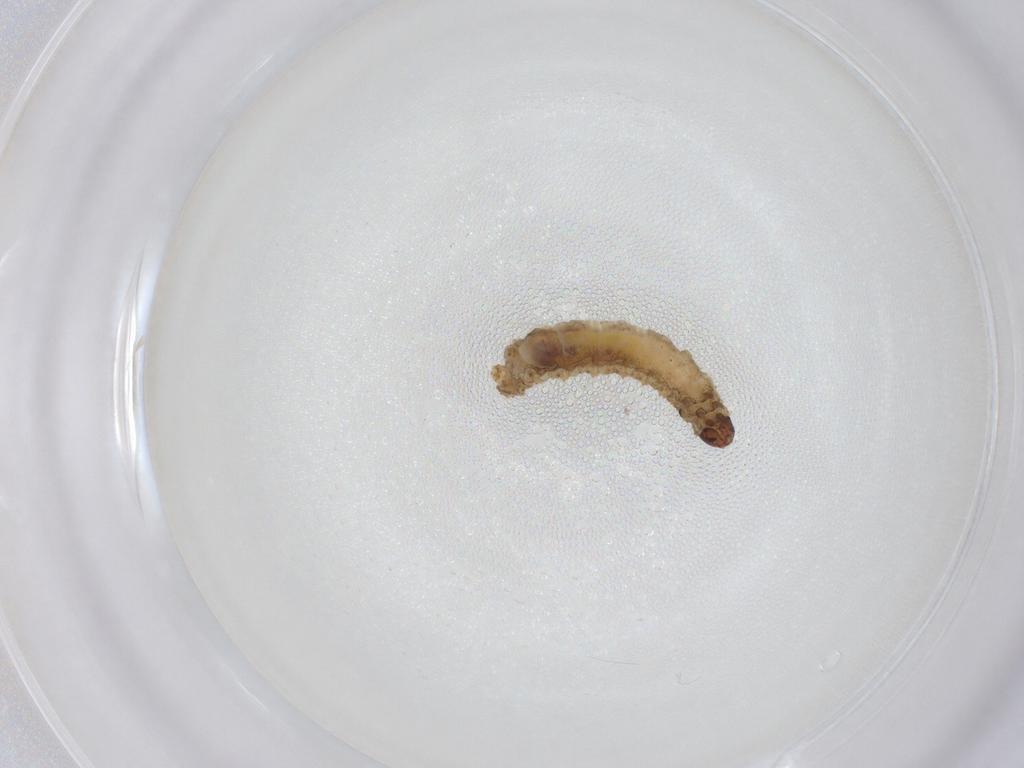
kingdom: Animalia
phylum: Arthropoda
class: Insecta
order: Lepidoptera
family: Geometridae
